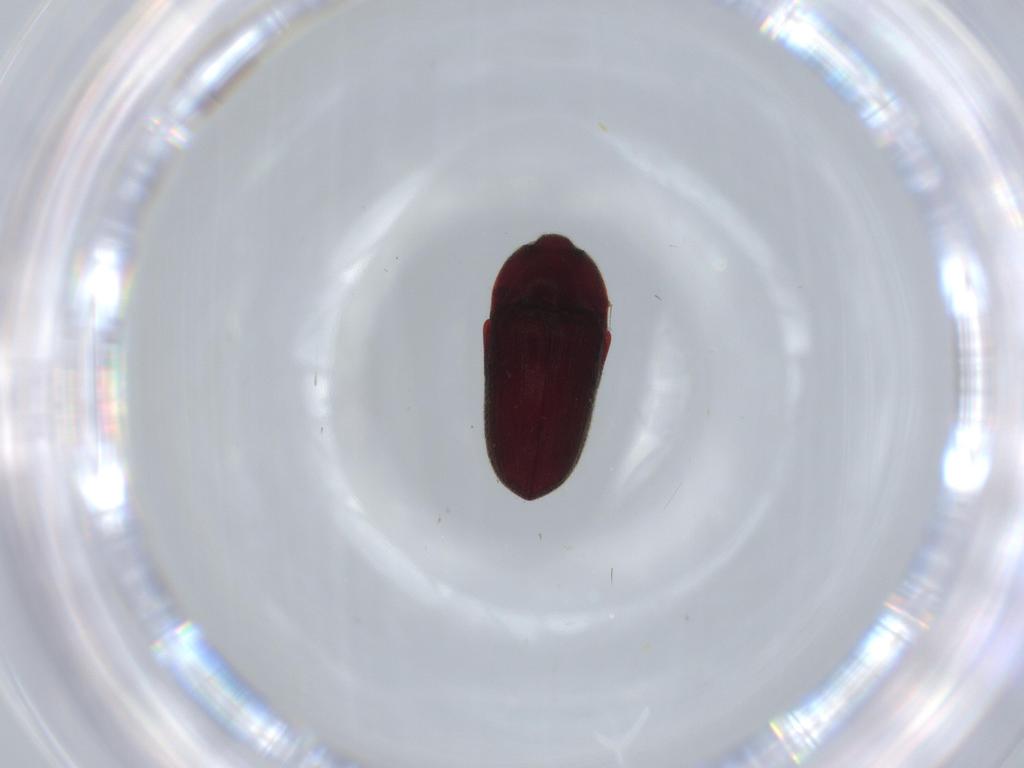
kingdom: Animalia
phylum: Arthropoda
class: Insecta
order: Coleoptera
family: Throscidae
